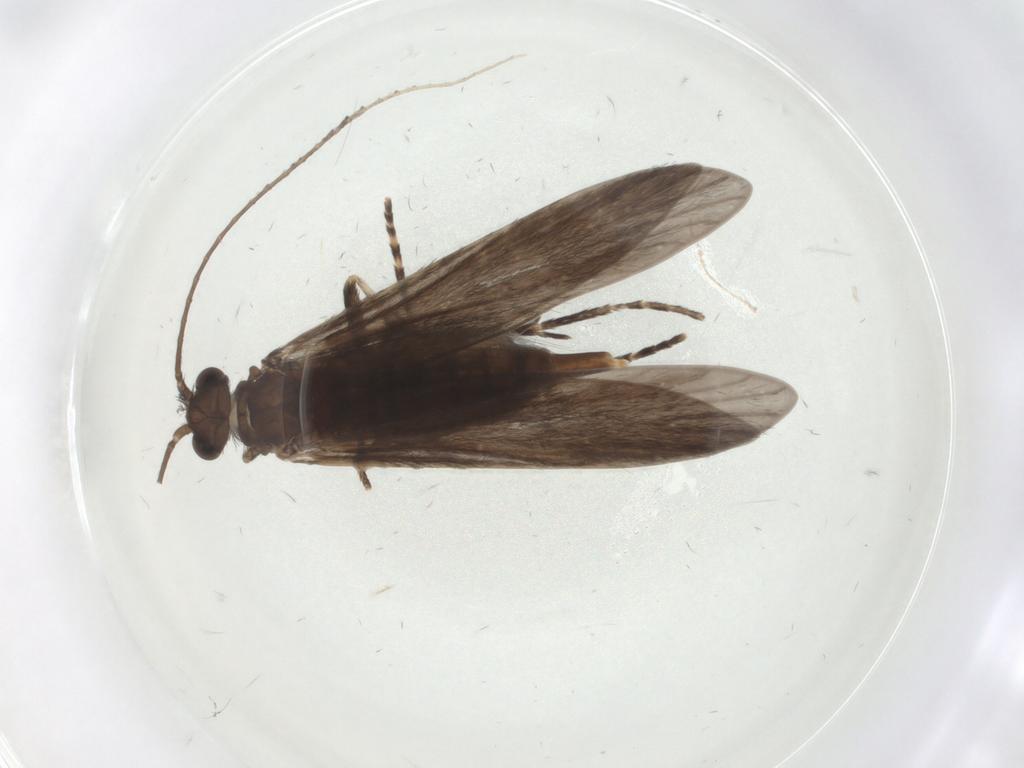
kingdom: Animalia
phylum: Arthropoda
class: Insecta
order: Trichoptera
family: Xiphocentronidae
